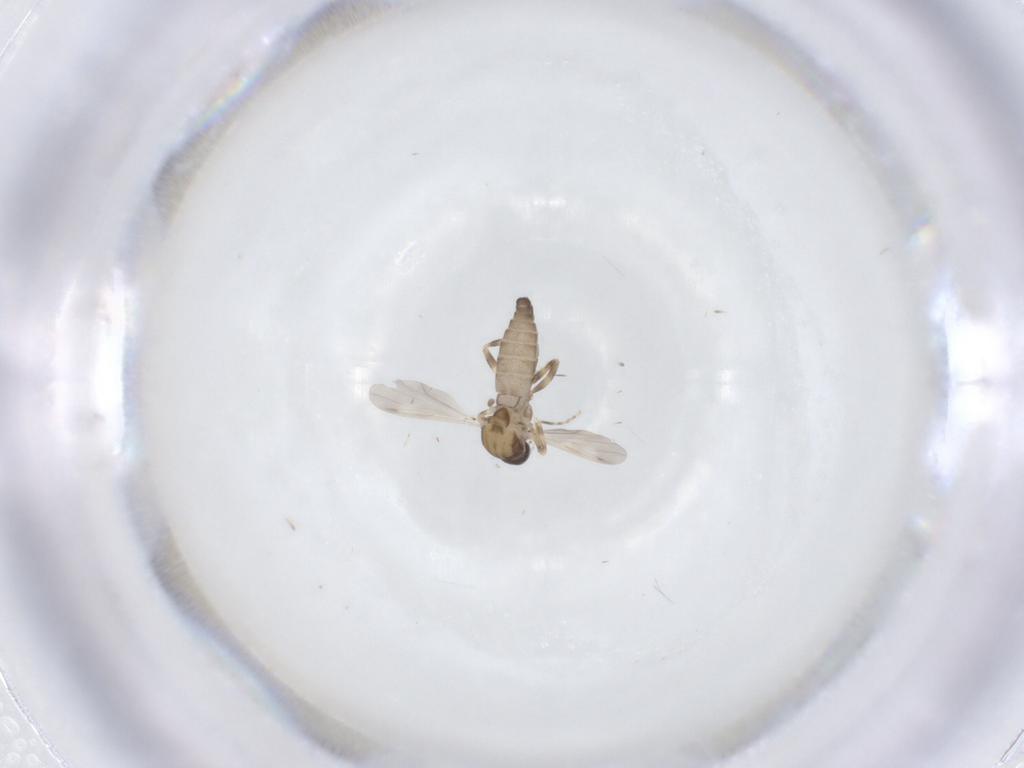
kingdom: Animalia
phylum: Arthropoda
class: Insecta
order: Diptera
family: Ceratopogonidae
